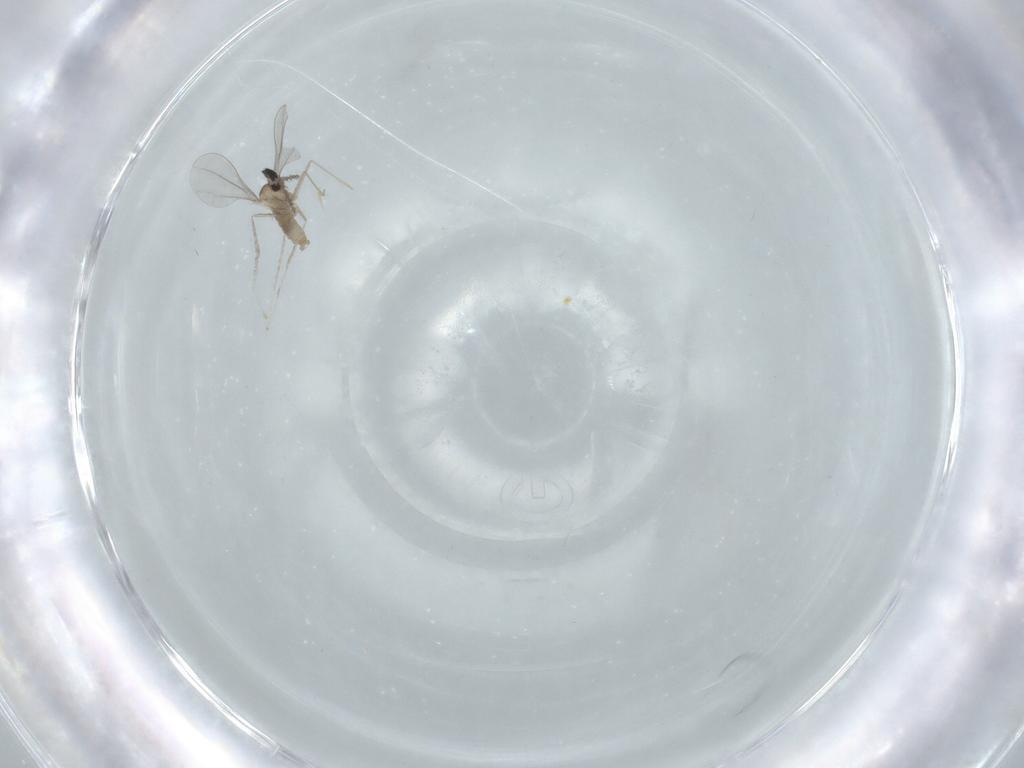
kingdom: Animalia
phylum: Arthropoda
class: Insecta
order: Diptera
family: Cecidomyiidae
